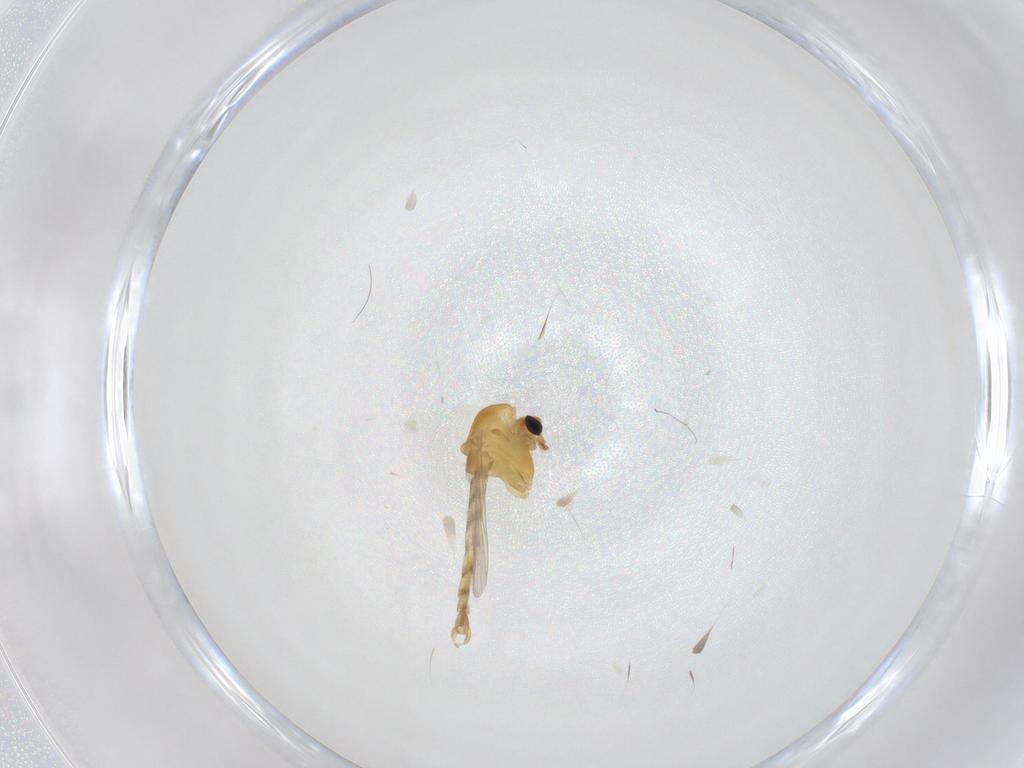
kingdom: Animalia
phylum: Arthropoda
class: Insecta
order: Diptera
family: Chironomidae
